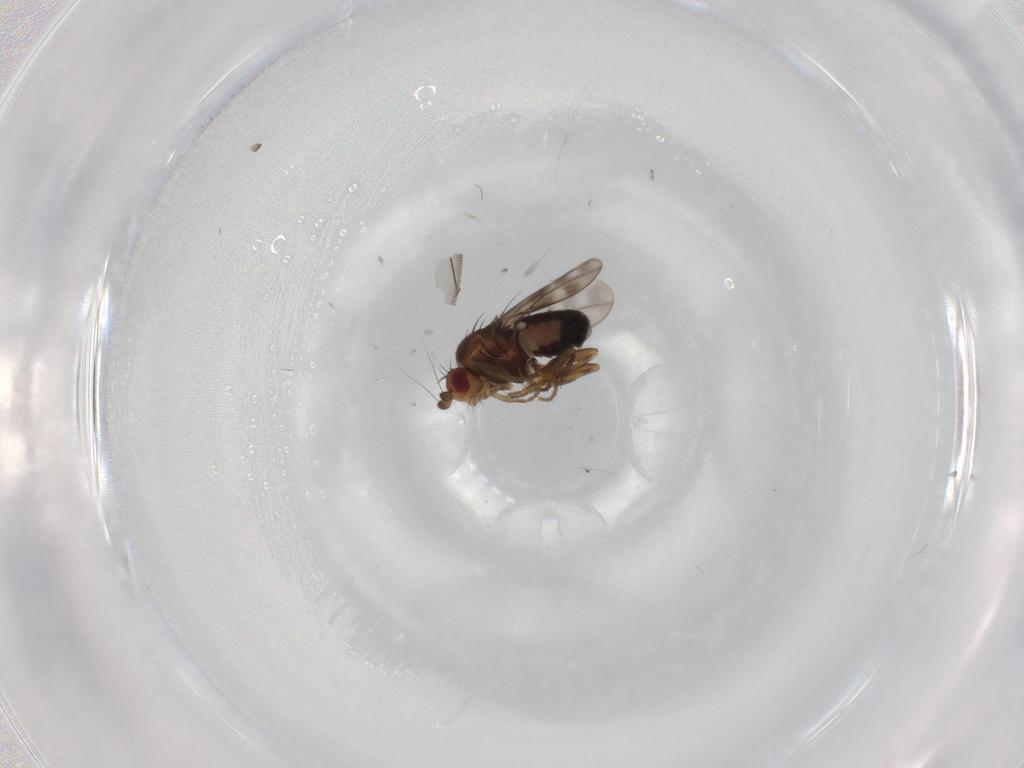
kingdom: Animalia
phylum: Arthropoda
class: Insecta
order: Diptera
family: Sphaeroceridae
